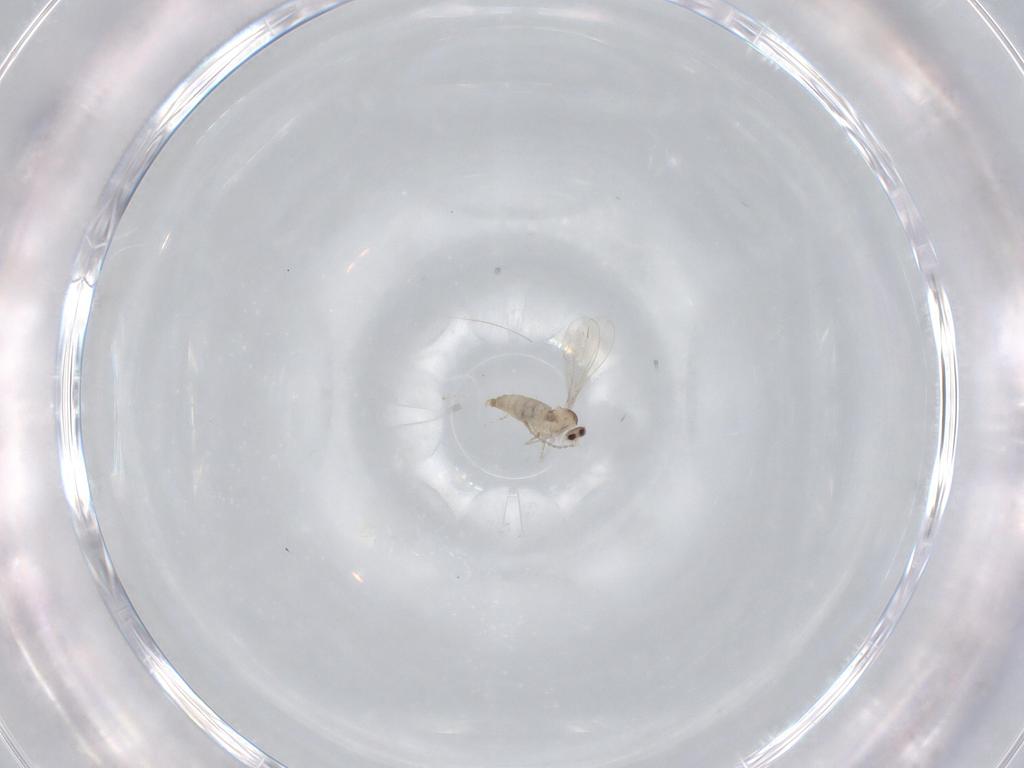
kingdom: Animalia
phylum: Arthropoda
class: Insecta
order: Diptera
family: Cecidomyiidae
